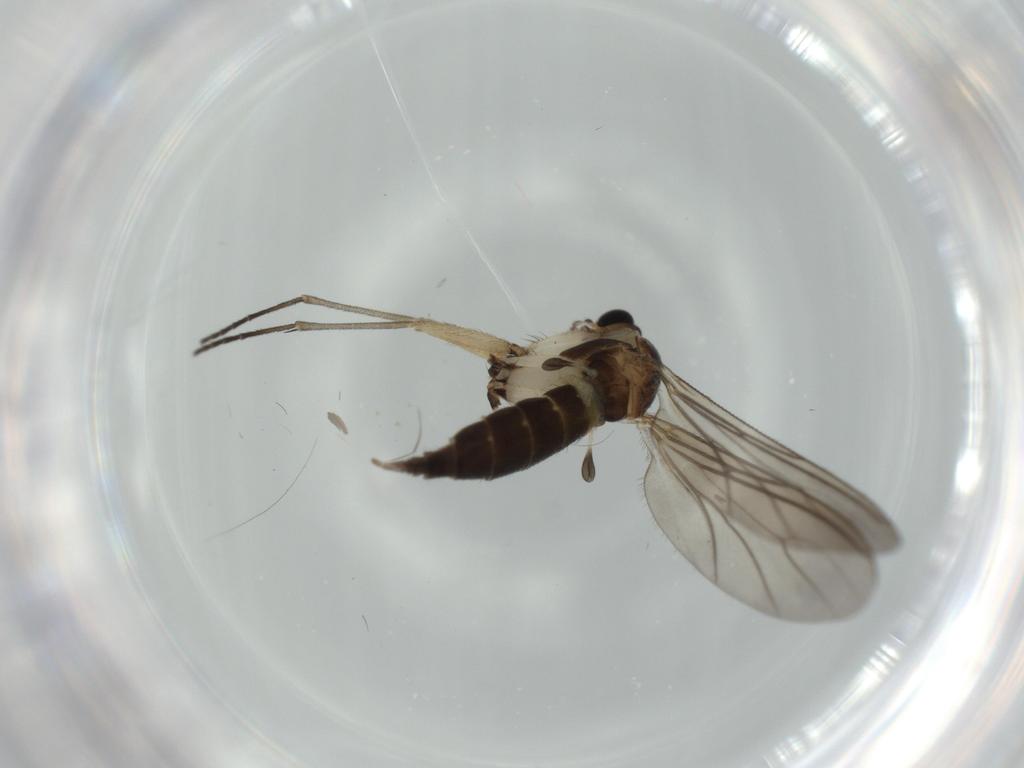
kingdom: Animalia
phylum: Arthropoda
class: Insecta
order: Diptera
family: Sciaridae
